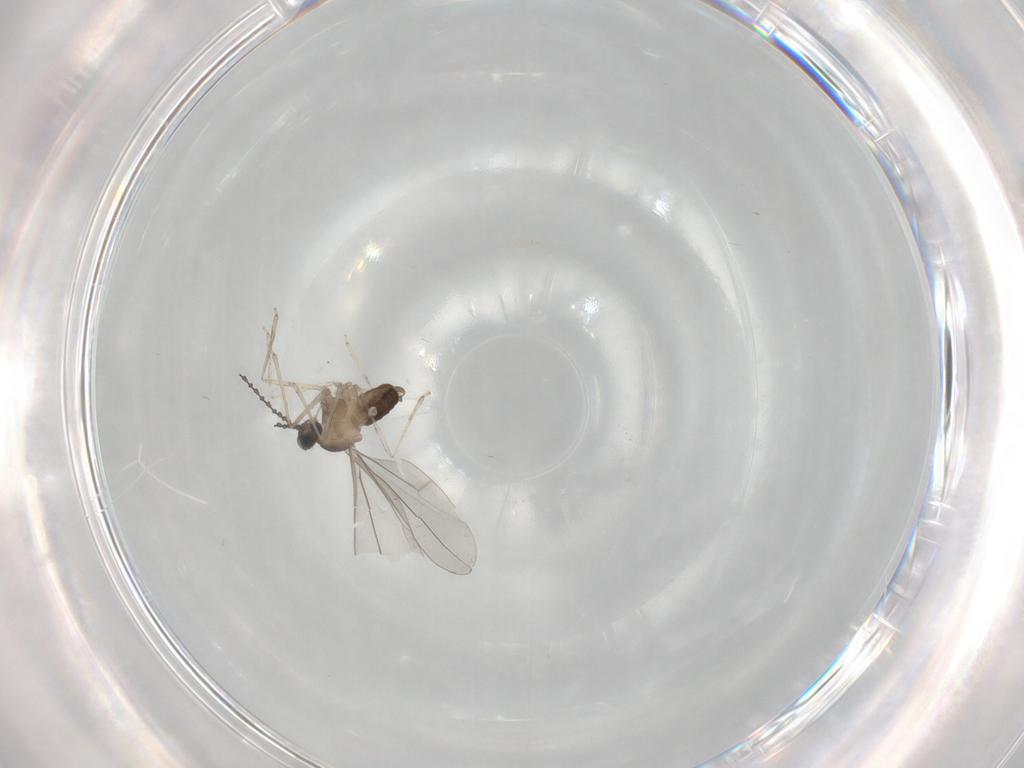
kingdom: Animalia
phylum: Arthropoda
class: Insecta
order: Diptera
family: Cecidomyiidae
